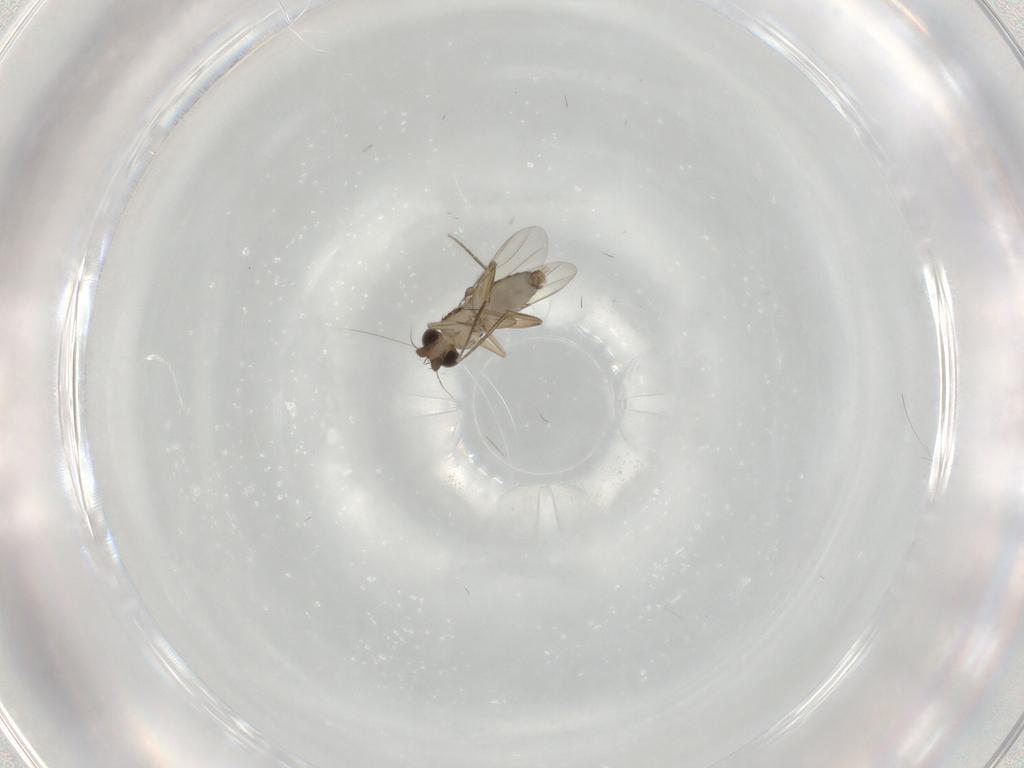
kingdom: Animalia
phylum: Arthropoda
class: Insecta
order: Diptera
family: Phoridae
